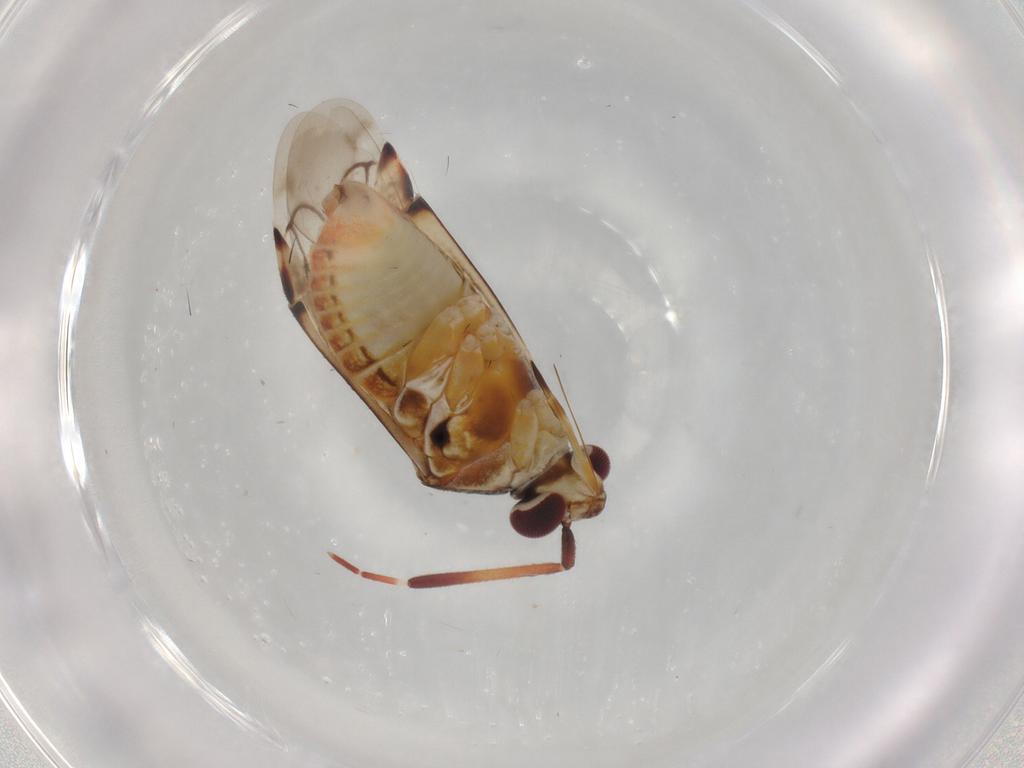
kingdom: Animalia
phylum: Arthropoda
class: Insecta
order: Hemiptera
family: Miridae
